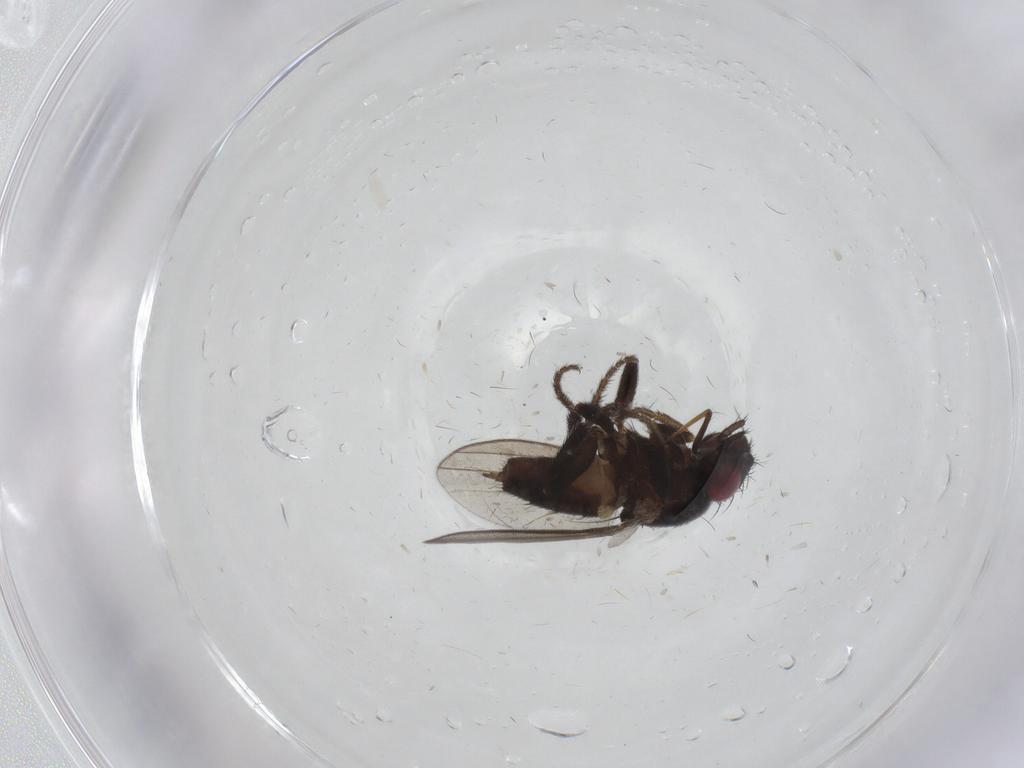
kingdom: Animalia
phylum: Arthropoda
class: Insecta
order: Diptera
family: Milichiidae
